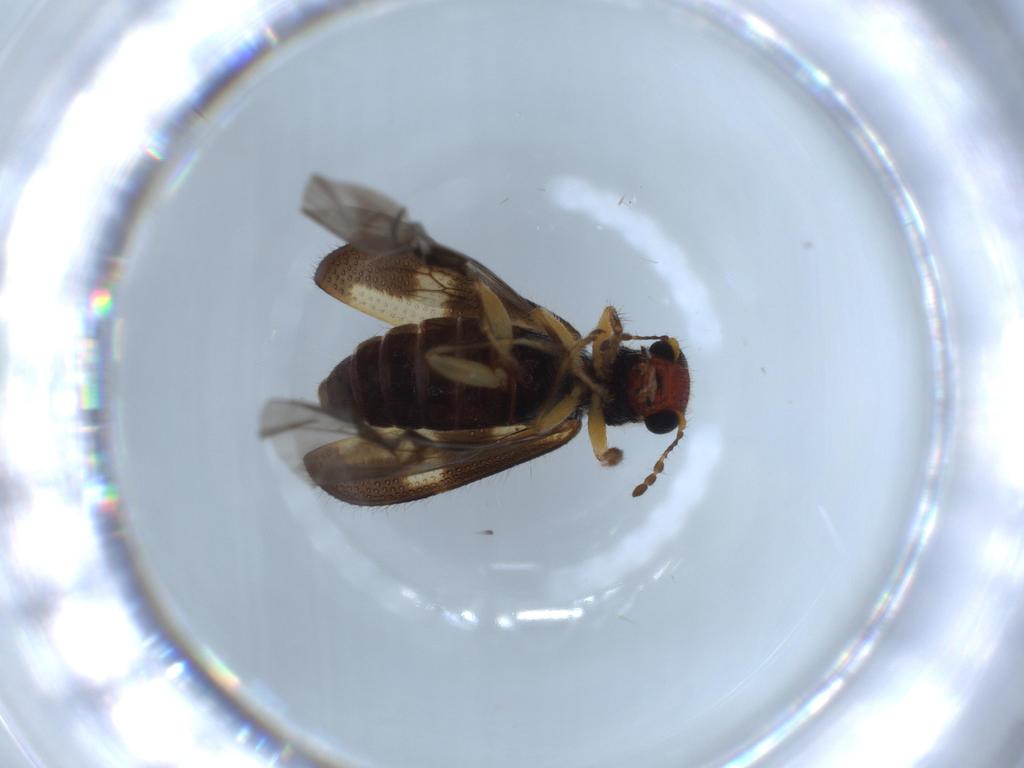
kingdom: Animalia
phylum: Arthropoda
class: Insecta
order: Coleoptera
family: Cleridae
